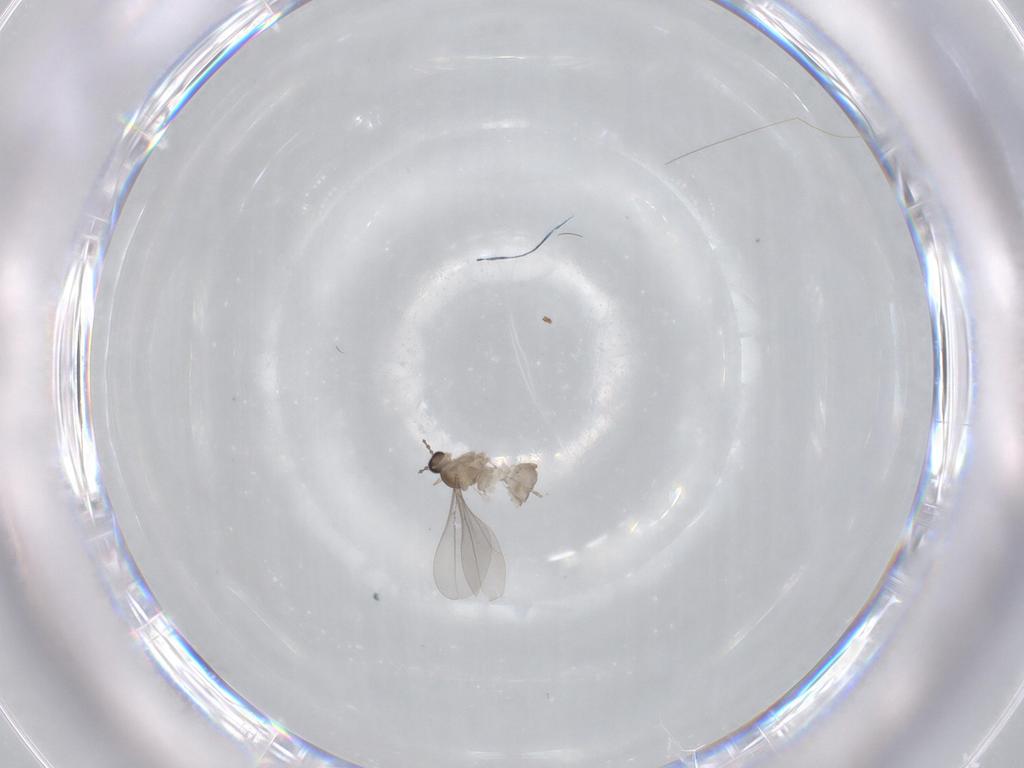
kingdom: Animalia
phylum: Arthropoda
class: Insecta
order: Diptera
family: Cecidomyiidae
